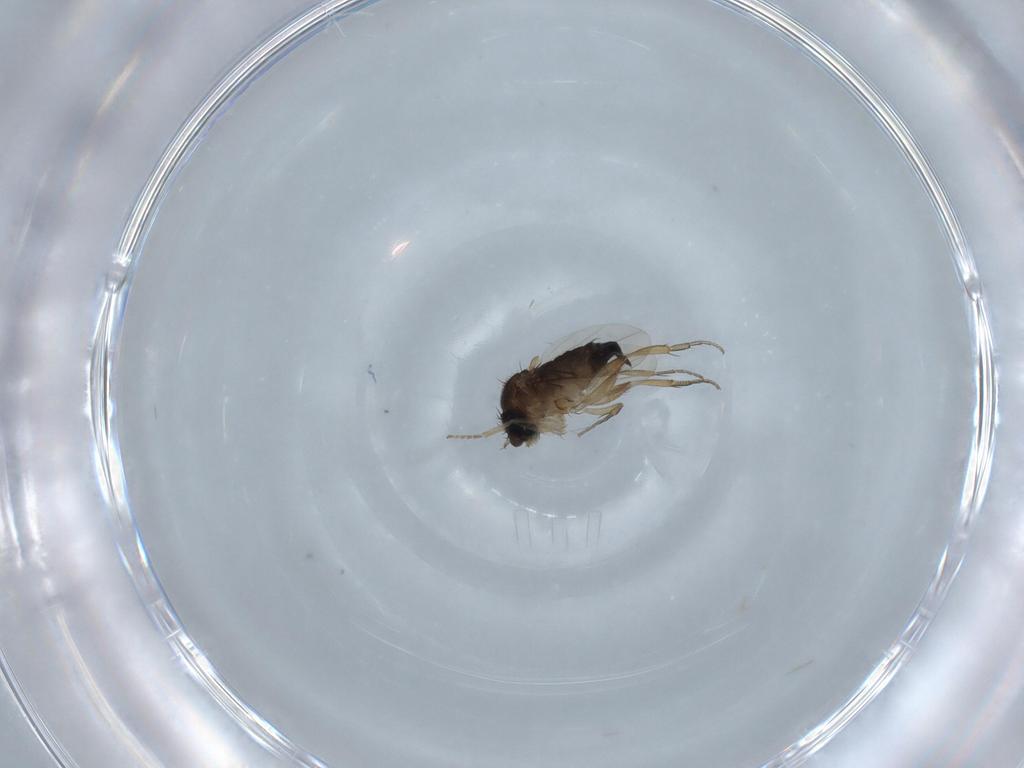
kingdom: Animalia
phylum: Arthropoda
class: Insecta
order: Diptera
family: Phoridae
